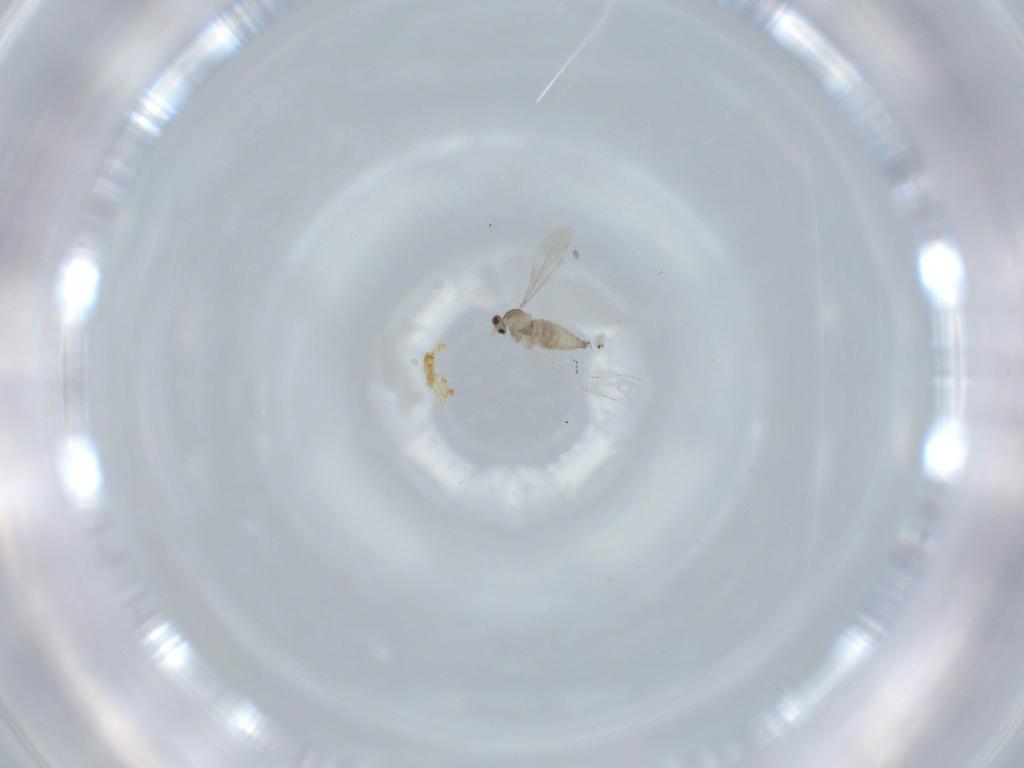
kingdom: Animalia
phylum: Arthropoda
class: Insecta
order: Diptera
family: Cecidomyiidae
